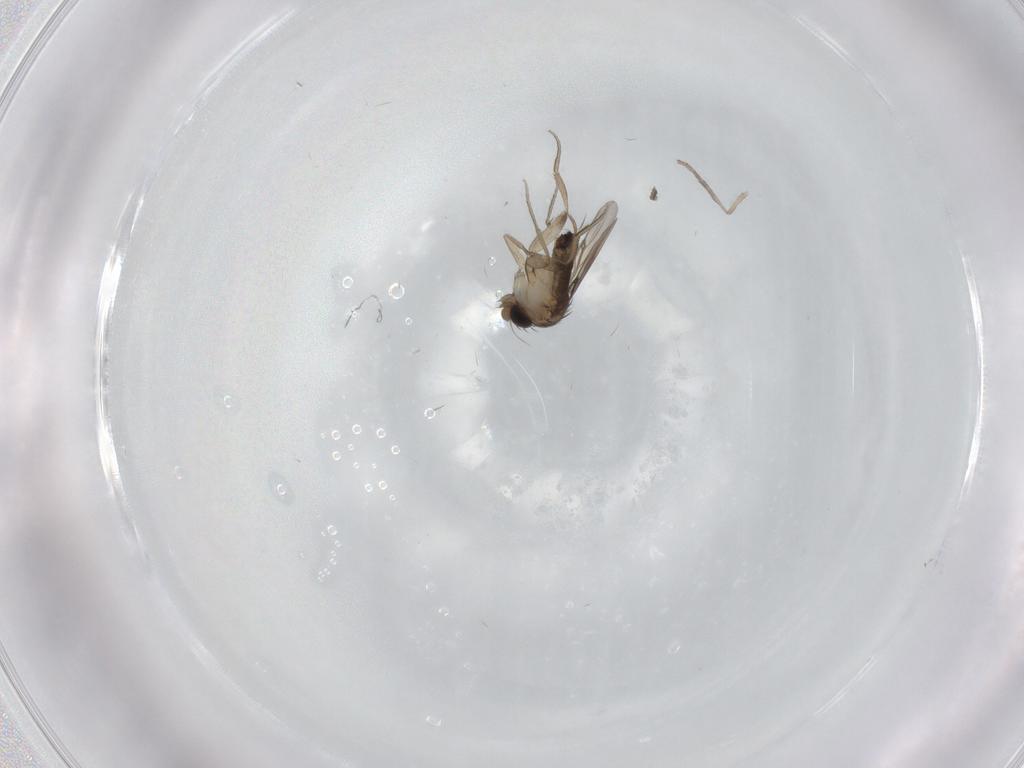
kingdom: Animalia
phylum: Arthropoda
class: Insecta
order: Diptera
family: Phoridae
